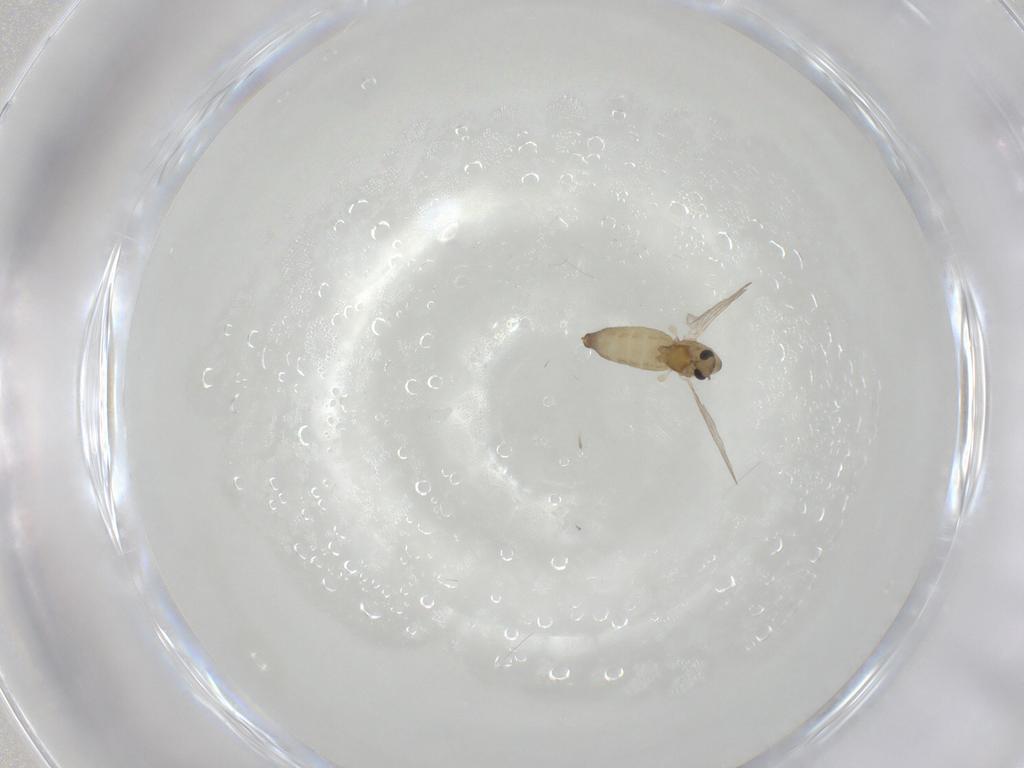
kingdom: Animalia
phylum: Arthropoda
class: Insecta
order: Diptera
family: Chironomidae
